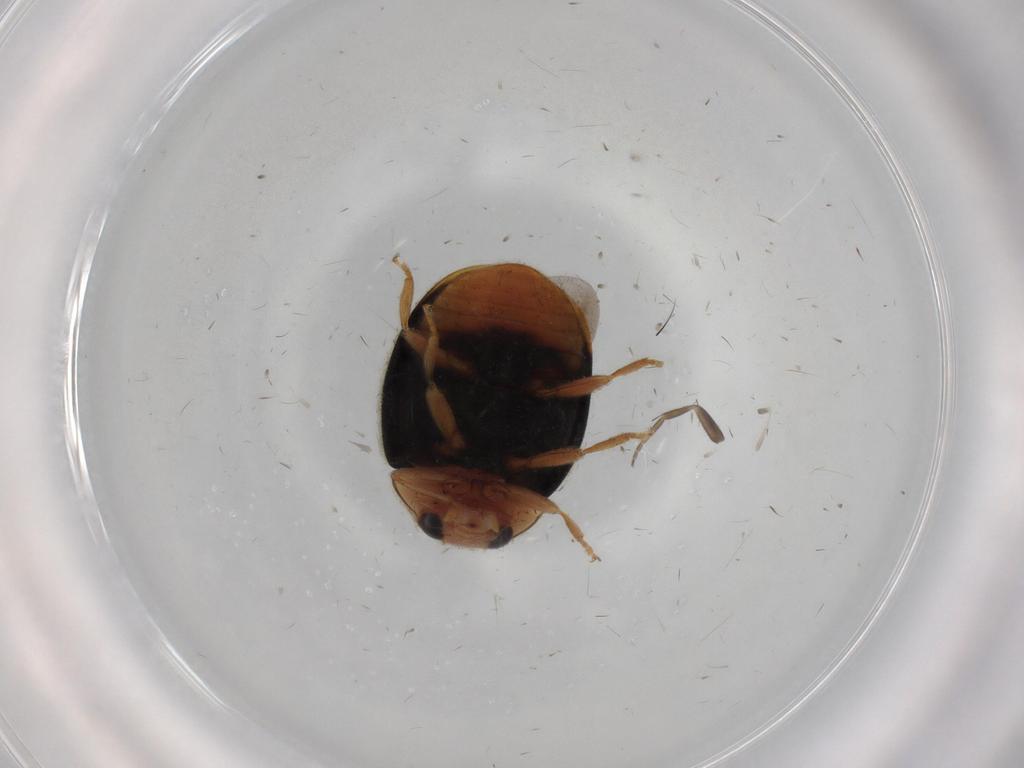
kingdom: Animalia
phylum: Arthropoda
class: Insecta
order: Coleoptera
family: Coccinellidae
